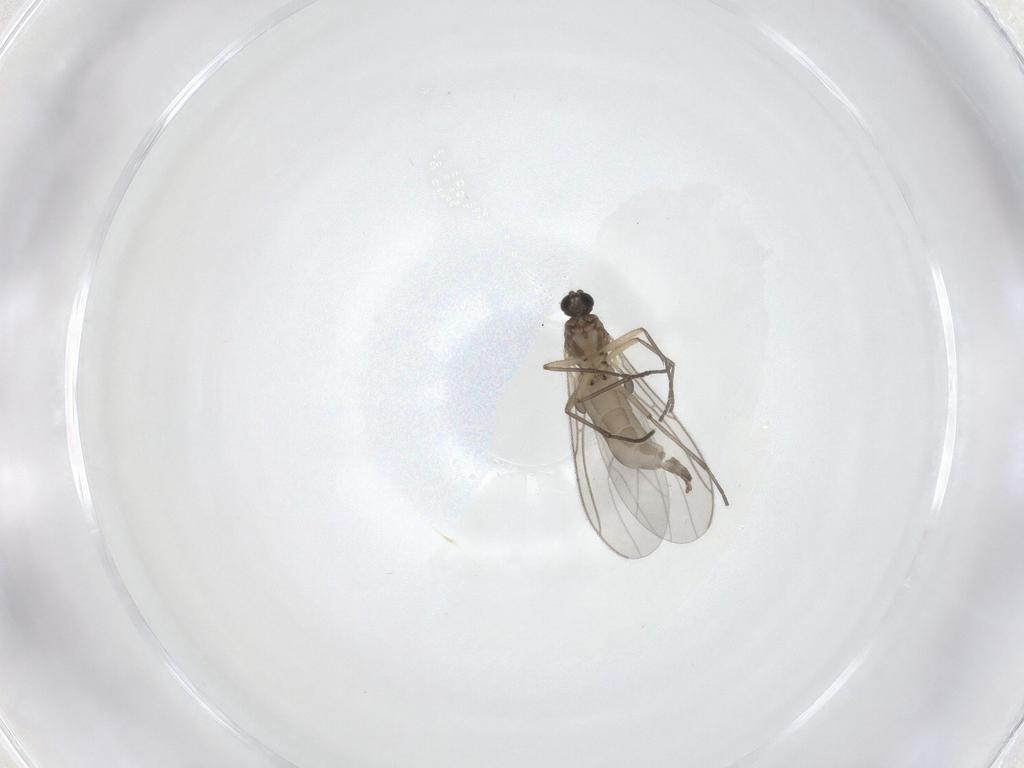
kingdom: Animalia
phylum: Arthropoda
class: Insecta
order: Diptera
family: Sciaridae
